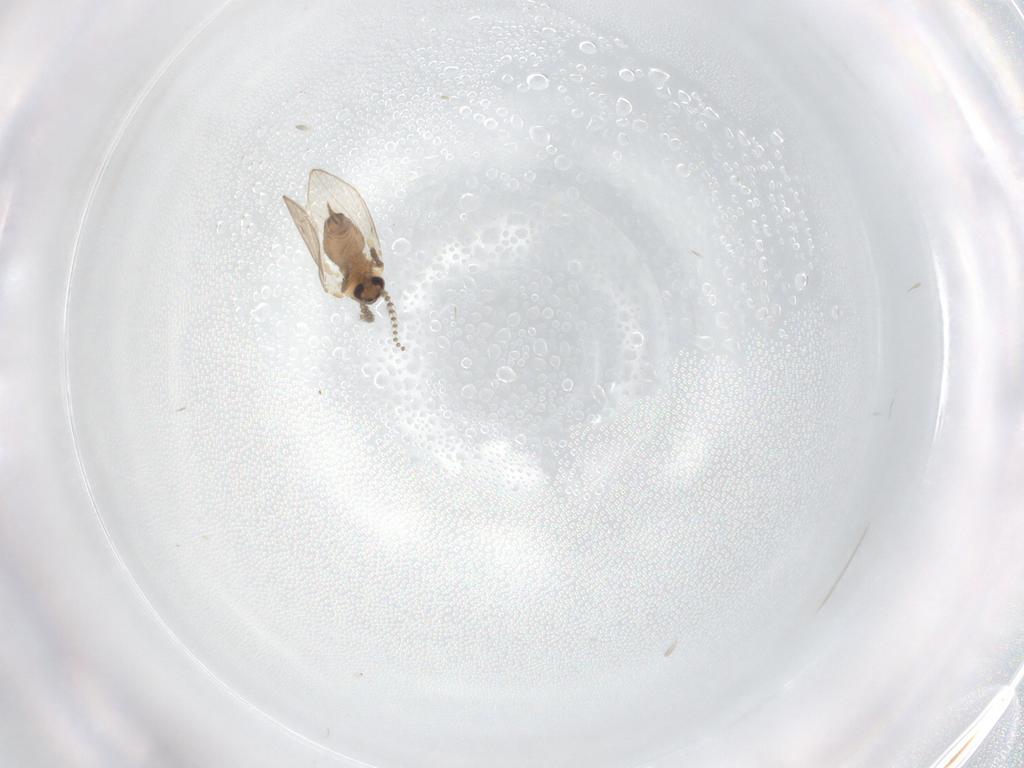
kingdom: Animalia
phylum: Arthropoda
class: Insecta
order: Diptera
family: Psychodidae
